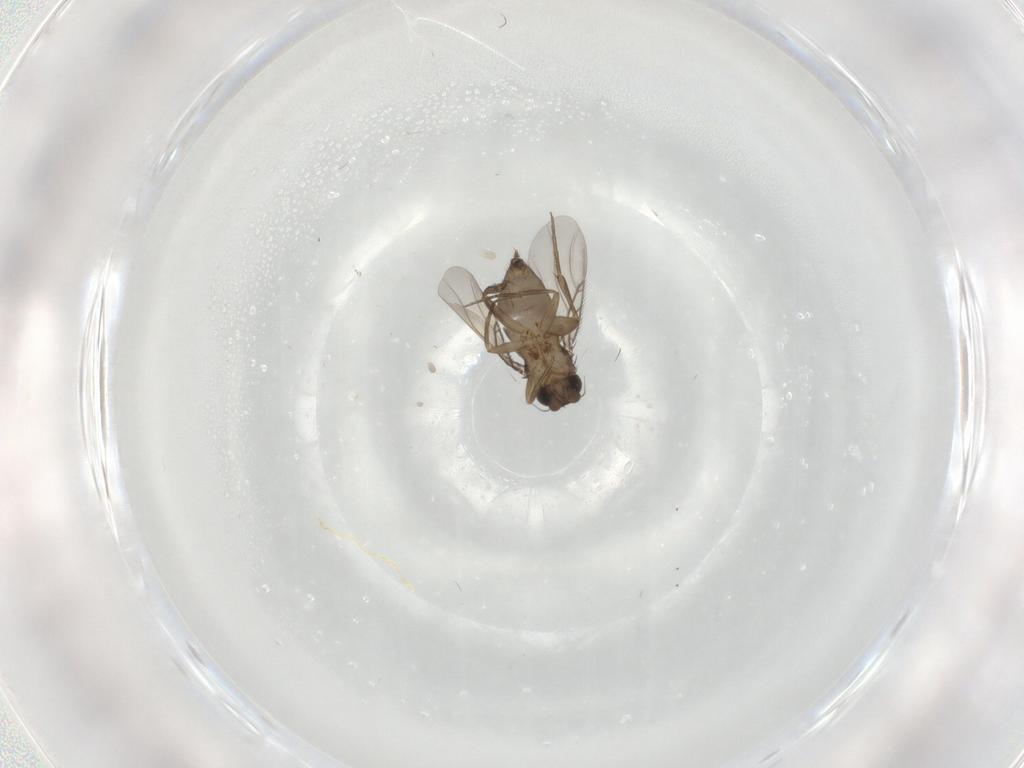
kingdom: Animalia
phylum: Arthropoda
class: Insecta
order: Diptera
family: Phoridae
